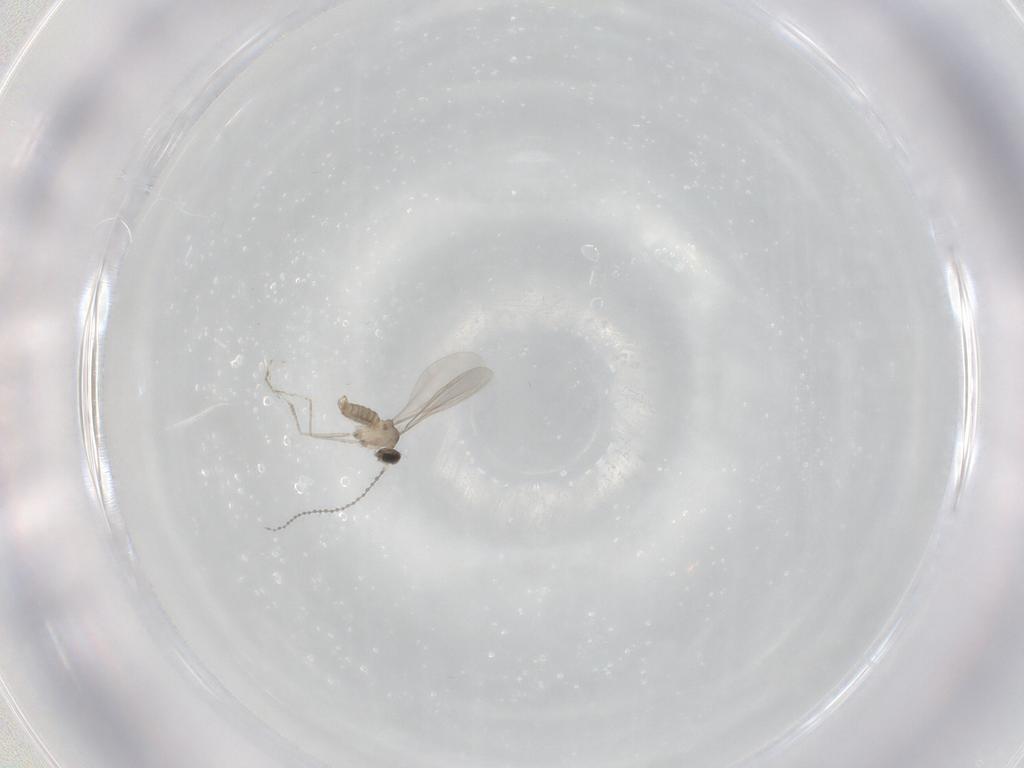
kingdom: Animalia
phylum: Arthropoda
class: Insecta
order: Diptera
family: Cecidomyiidae
